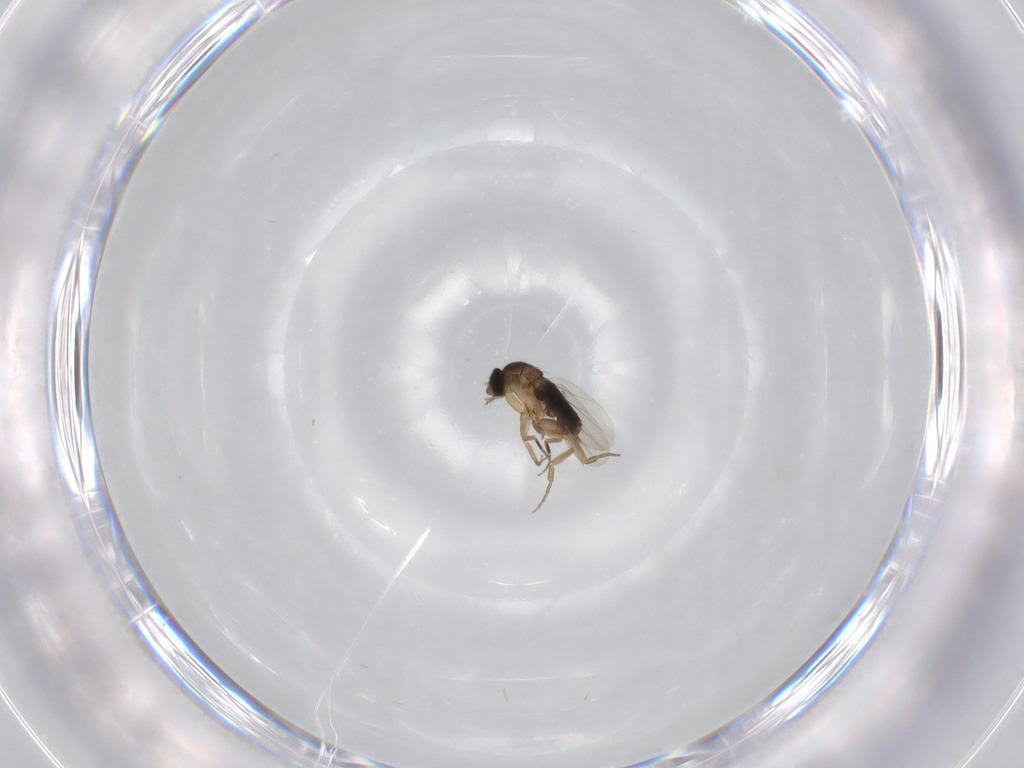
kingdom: Animalia
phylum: Arthropoda
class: Insecta
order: Diptera
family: Phoridae
